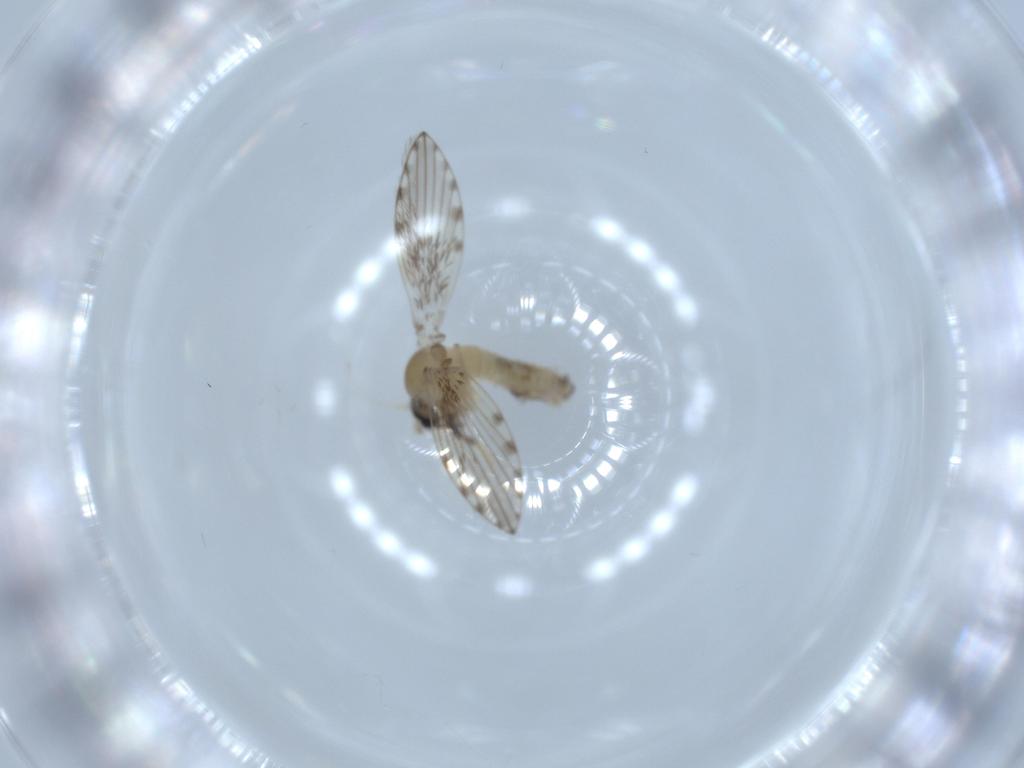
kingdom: Animalia
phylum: Arthropoda
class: Insecta
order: Diptera
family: Psychodidae
